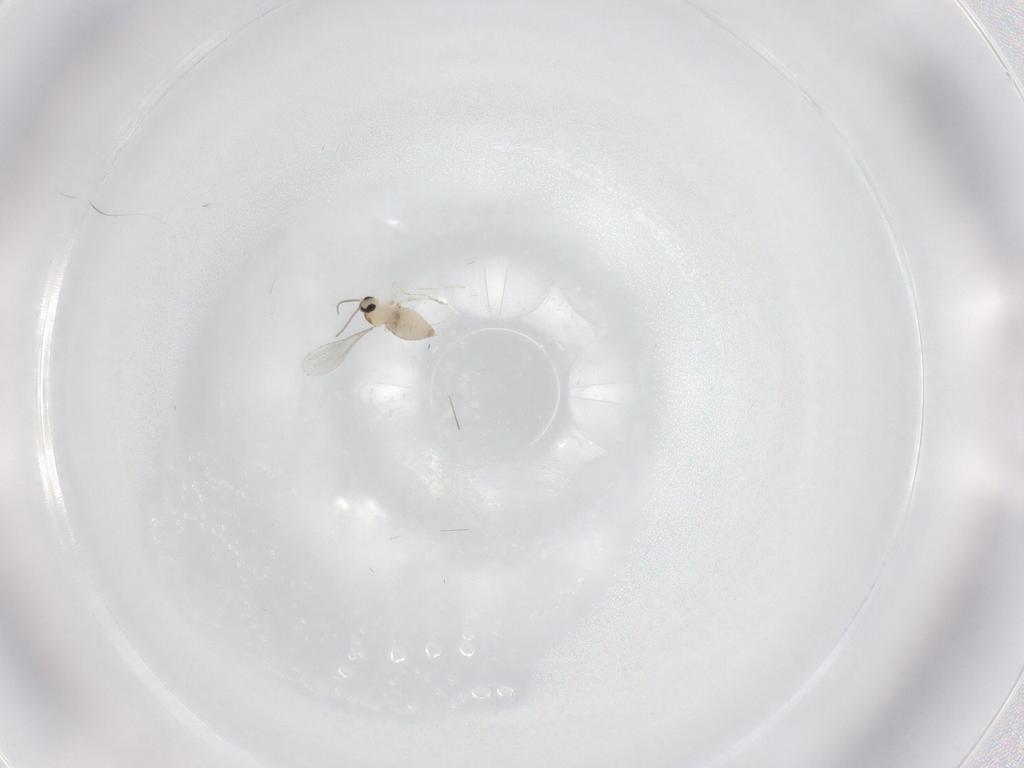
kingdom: Animalia
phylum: Arthropoda
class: Insecta
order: Diptera
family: Cecidomyiidae
